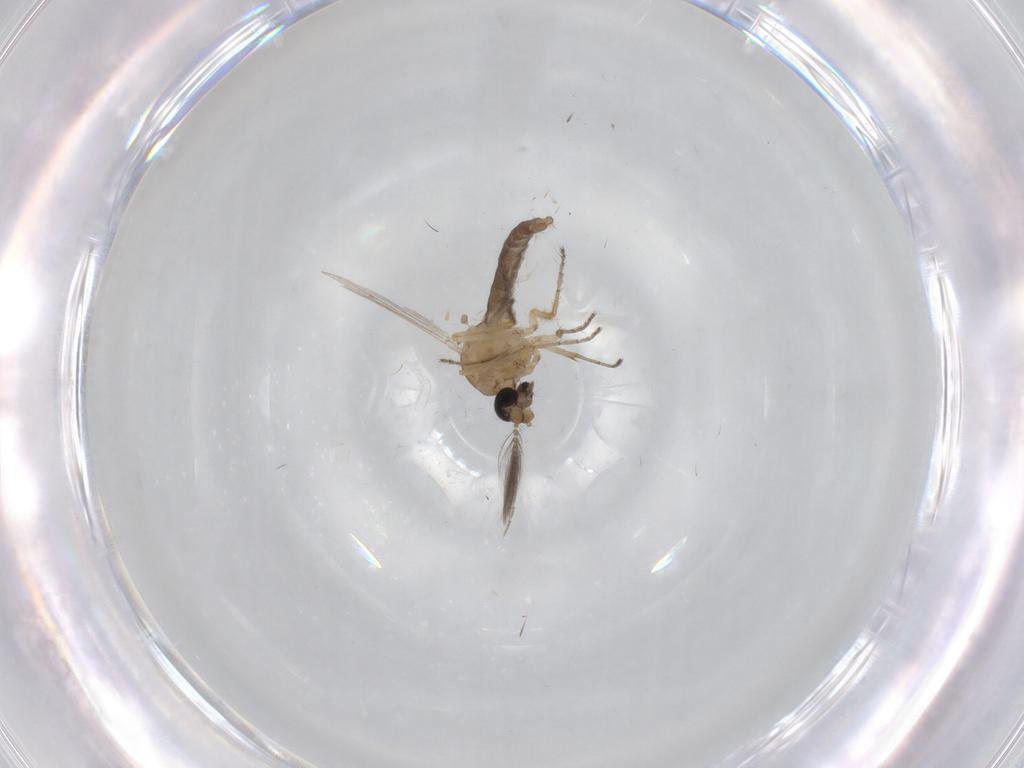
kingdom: Animalia
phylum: Arthropoda
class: Insecta
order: Diptera
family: Ceratopogonidae
